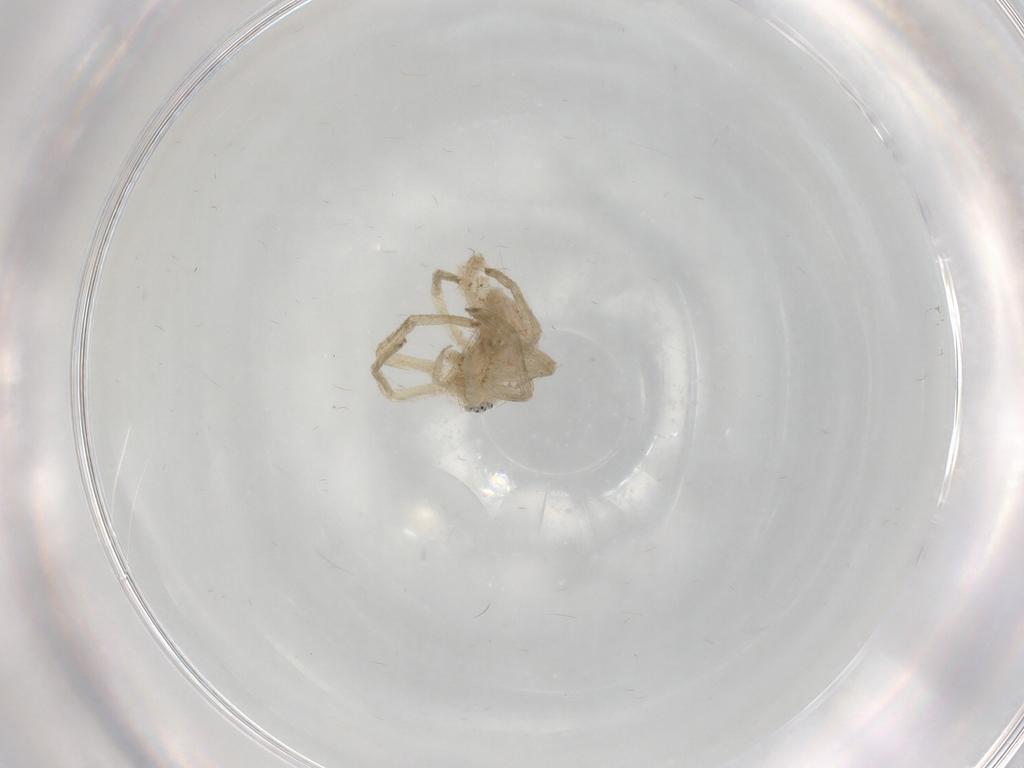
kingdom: Animalia
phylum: Arthropoda
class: Arachnida
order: Araneae
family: Philodromidae
